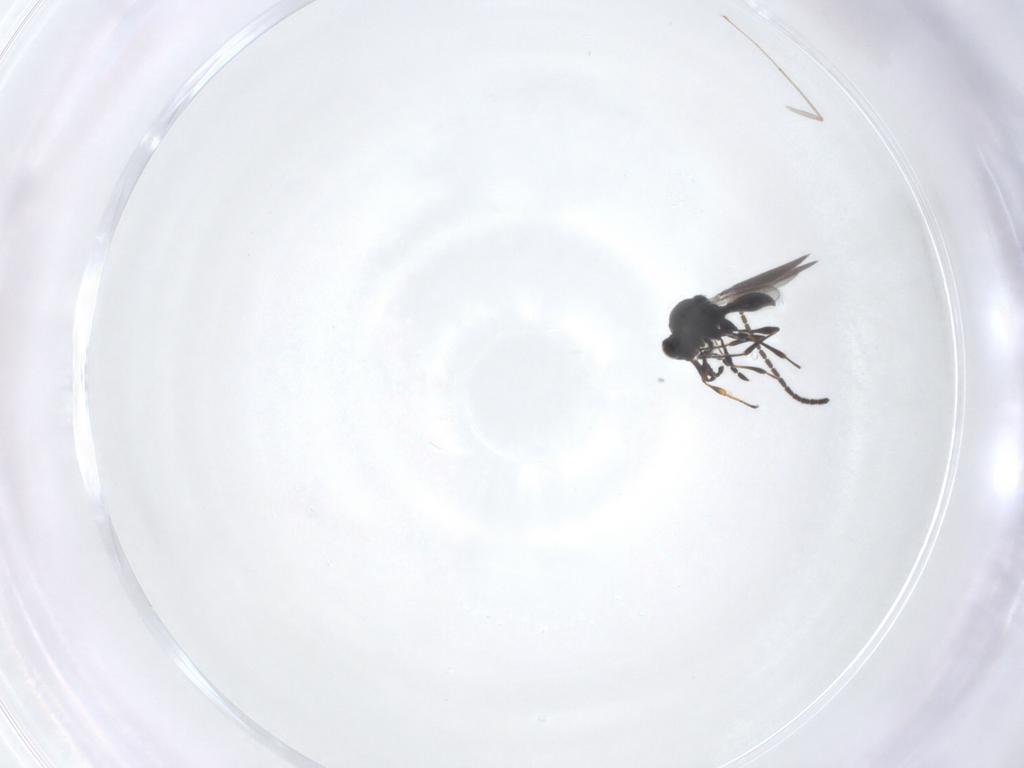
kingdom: Animalia
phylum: Arthropoda
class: Insecta
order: Hymenoptera
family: Platygastridae
